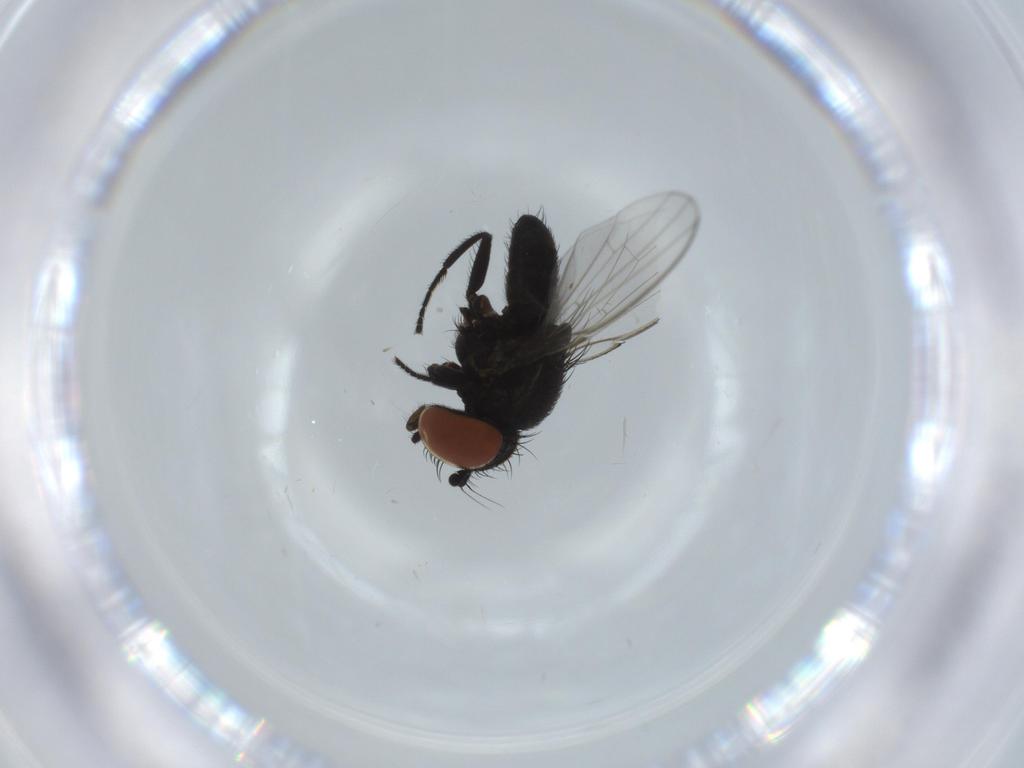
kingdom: Animalia
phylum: Arthropoda
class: Insecta
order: Diptera
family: Milichiidae
